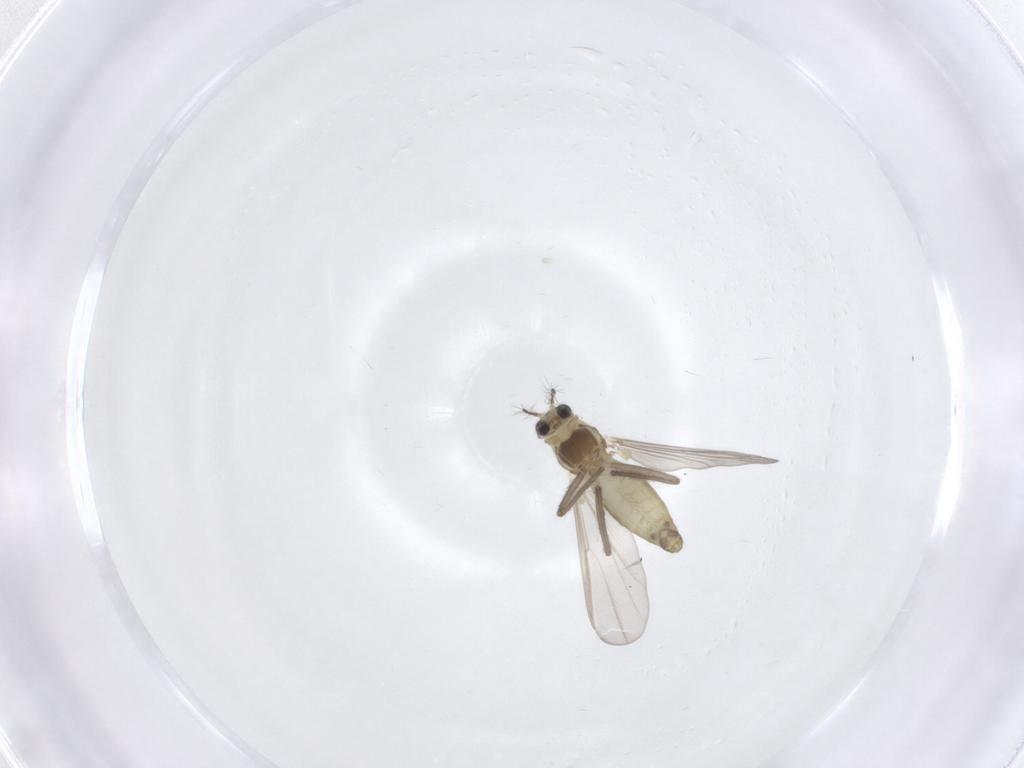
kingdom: Animalia
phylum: Arthropoda
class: Insecta
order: Diptera
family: Chironomidae
